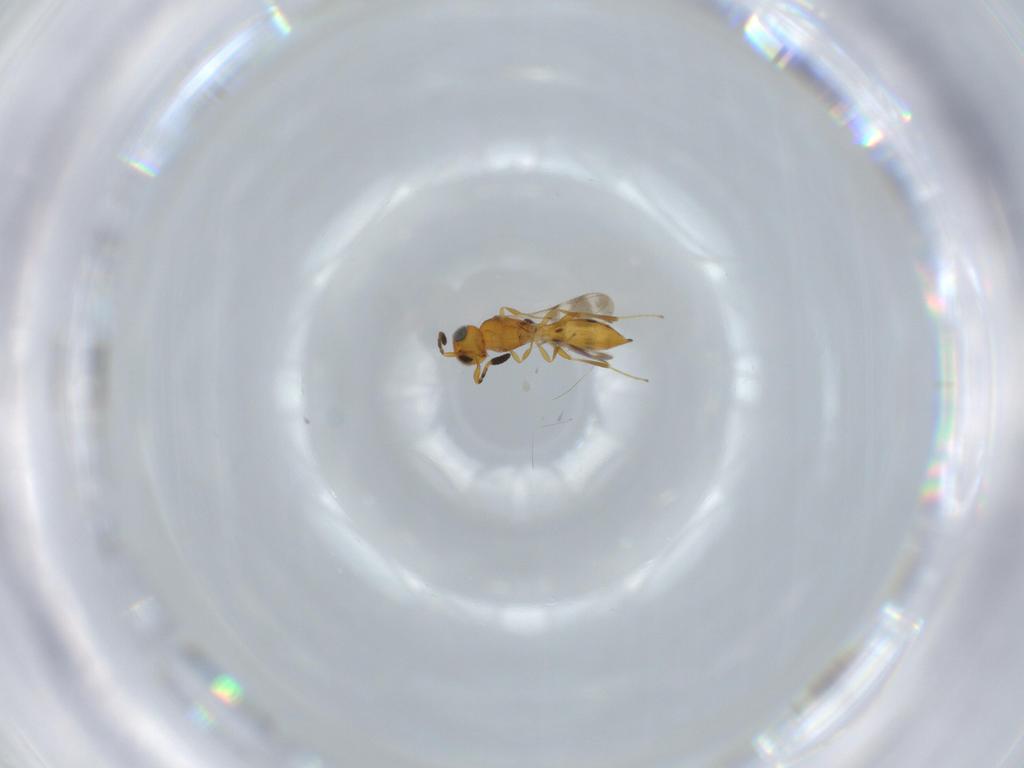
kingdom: Animalia
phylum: Arthropoda
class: Insecta
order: Hymenoptera
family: Scelionidae
